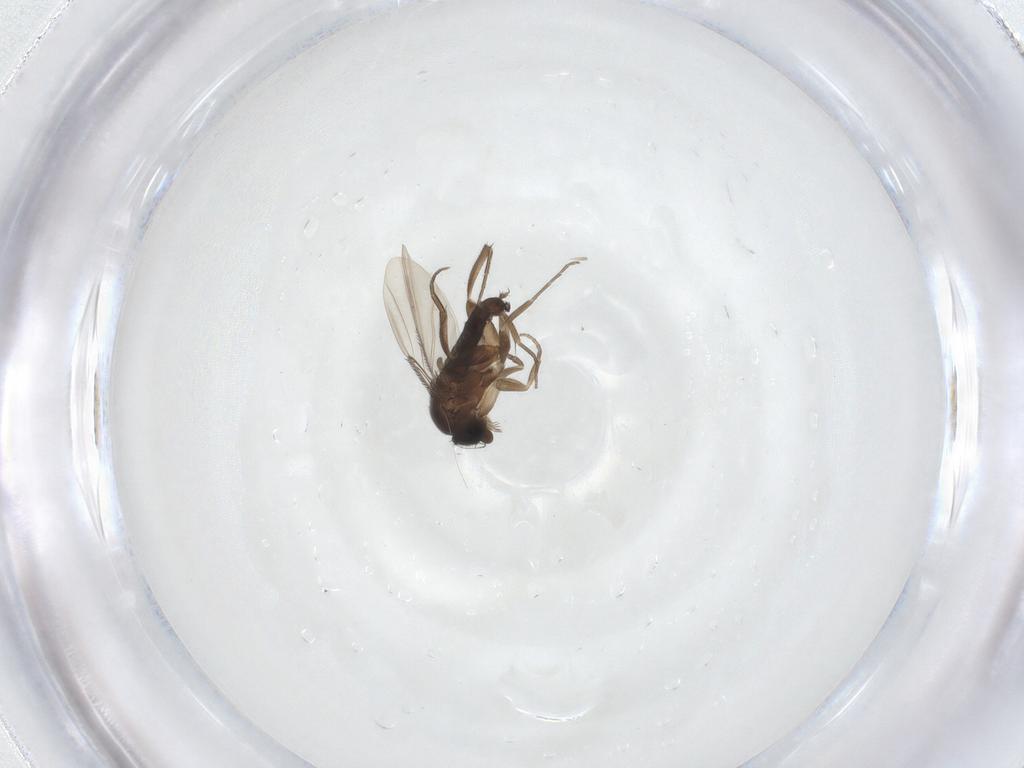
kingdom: Animalia
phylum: Arthropoda
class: Insecta
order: Diptera
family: Phoridae
